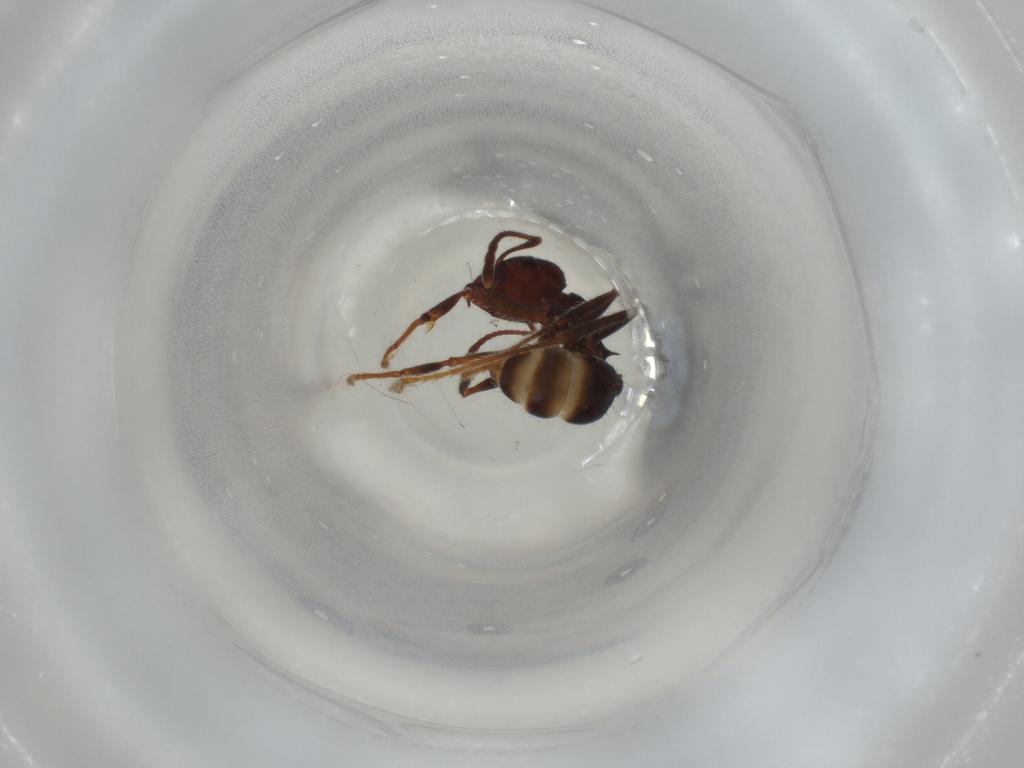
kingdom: Animalia
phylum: Arthropoda
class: Insecta
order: Hymenoptera
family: Formicidae
